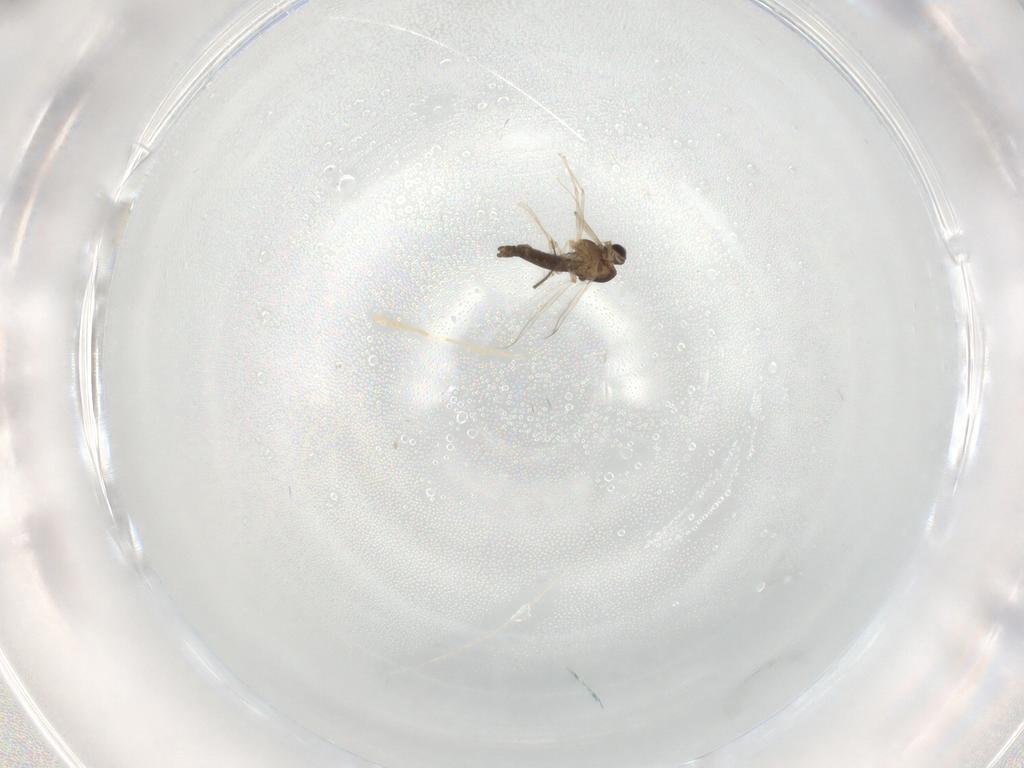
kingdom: Animalia
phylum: Arthropoda
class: Insecta
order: Diptera
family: Chironomidae
